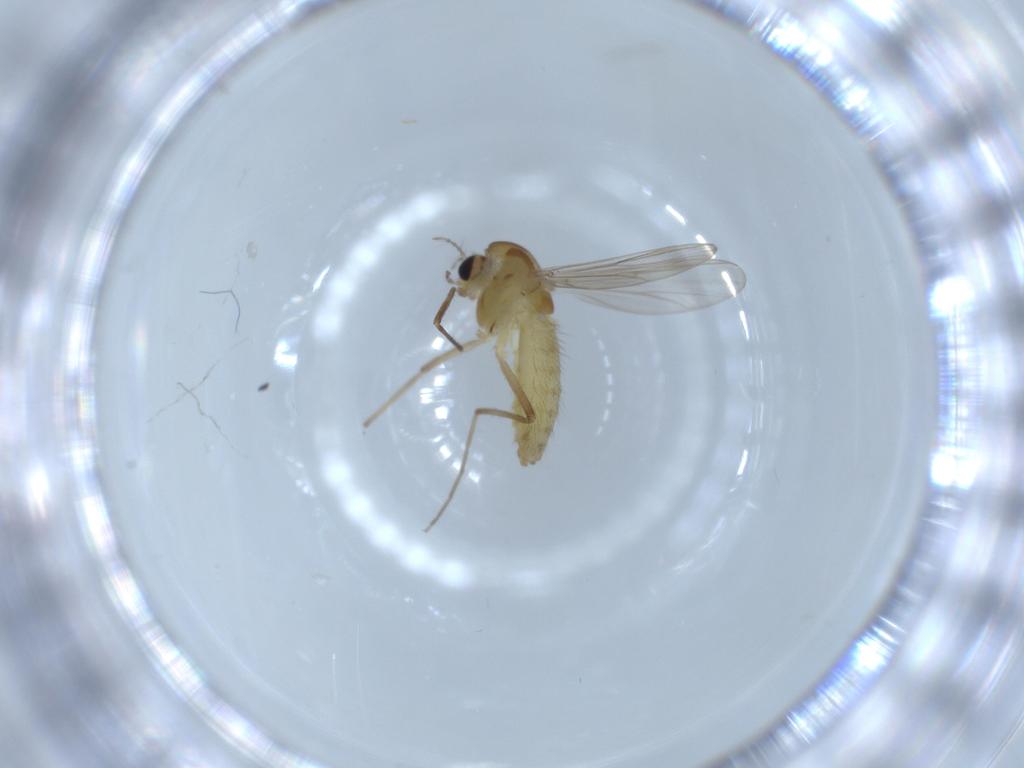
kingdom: Animalia
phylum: Arthropoda
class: Insecta
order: Diptera
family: Chironomidae
